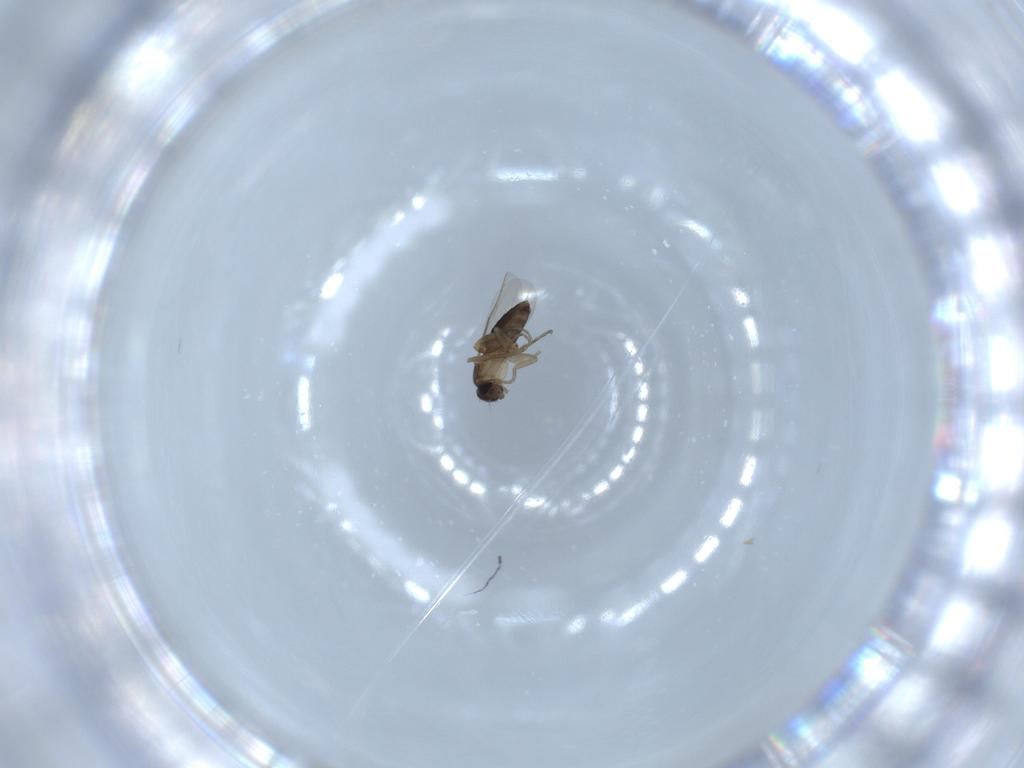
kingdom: Animalia
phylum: Arthropoda
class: Insecta
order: Diptera
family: Phoridae
